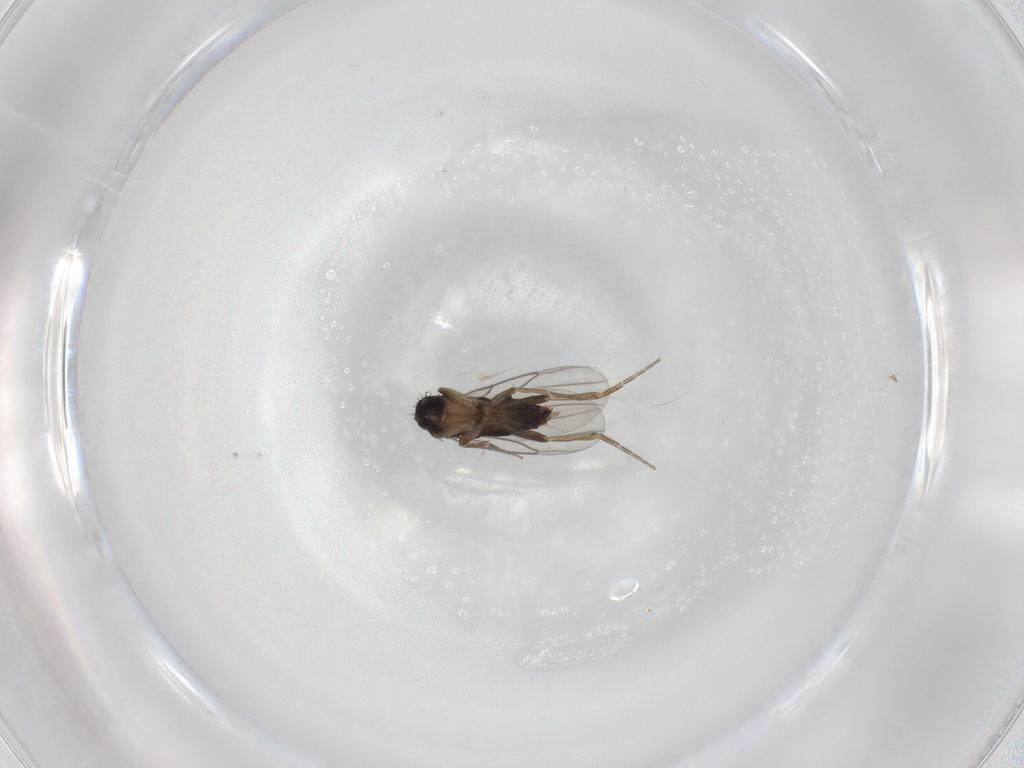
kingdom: Animalia
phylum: Arthropoda
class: Insecta
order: Diptera
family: Phoridae
